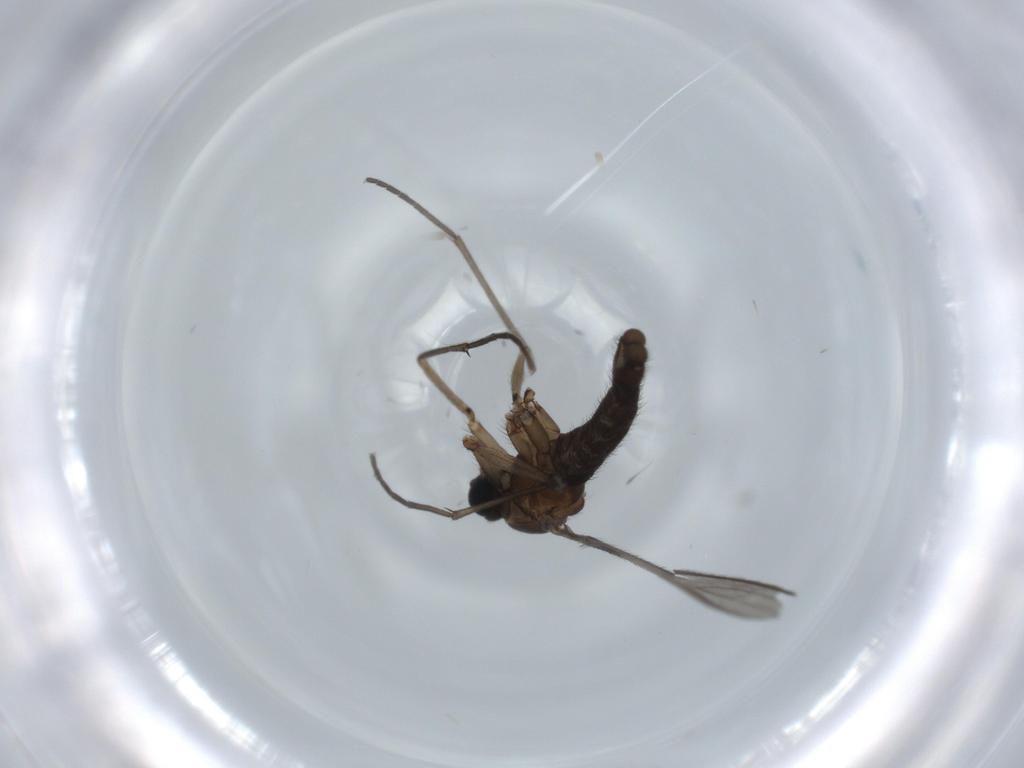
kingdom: Animalia
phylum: Arthropoda
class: Insecta
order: Diptera
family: Sciaridae
